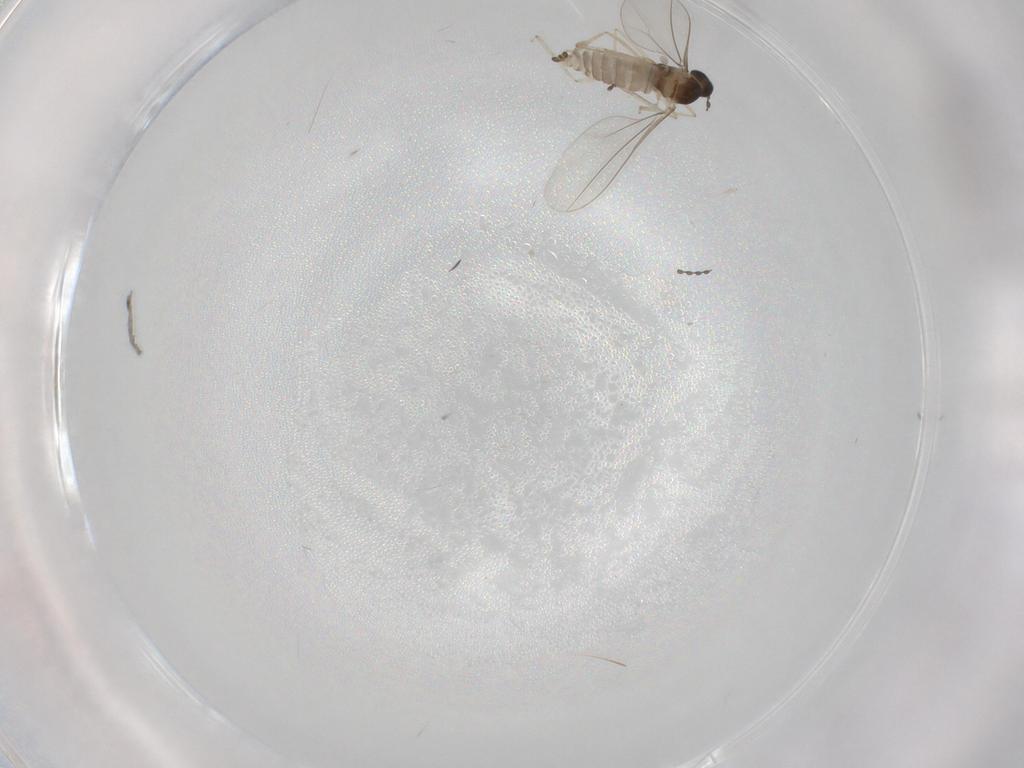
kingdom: Animalia
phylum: Arthropoda
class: Insecta
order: Diptera
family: Cecidomyiidae
